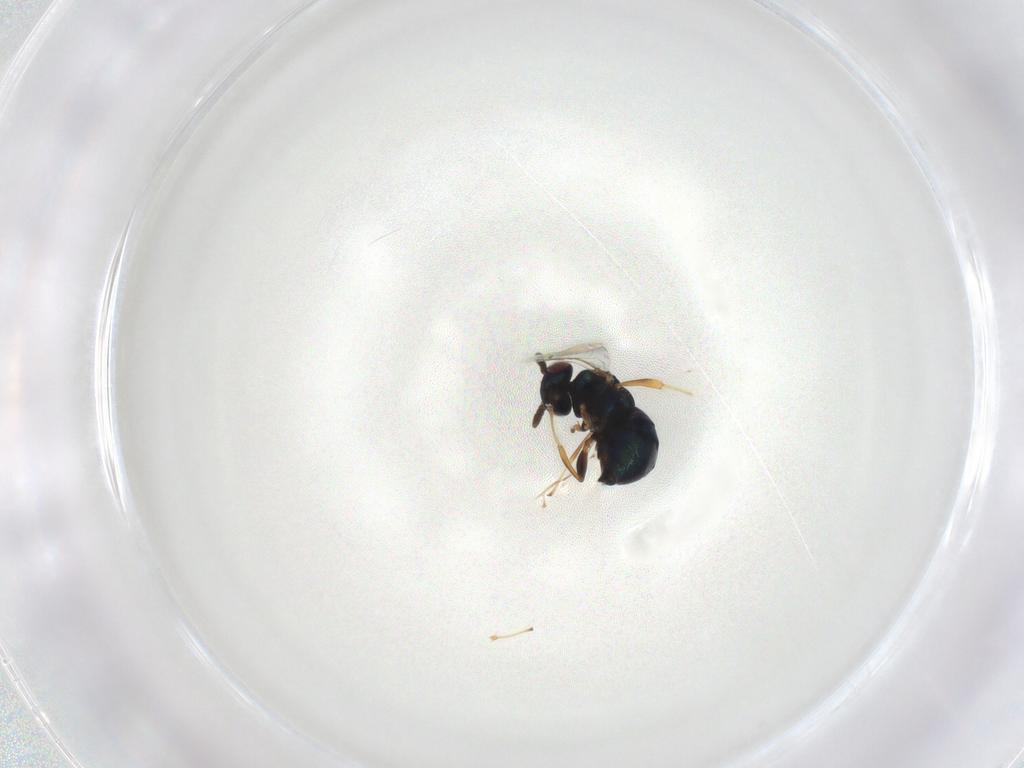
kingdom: Animalia
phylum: Arthropoda
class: Insecta
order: Hymenoptera
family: Pteromalidae
